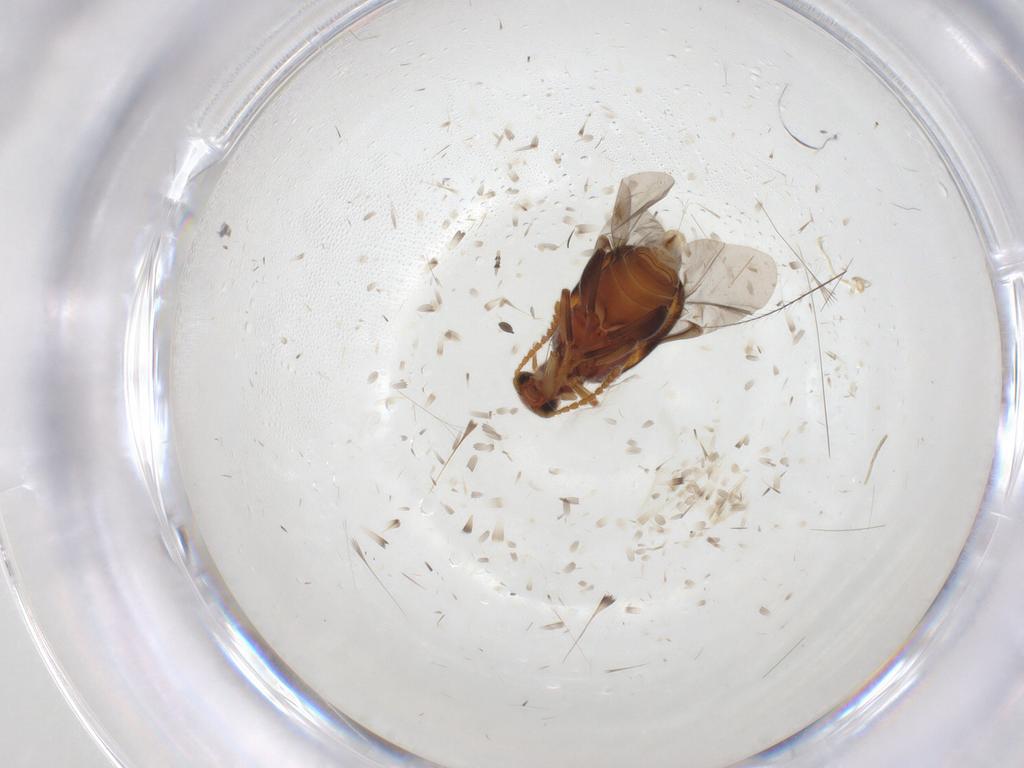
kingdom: Animalia
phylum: Arthropoda
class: Insecta
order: Coleoptera
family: Aderidae
